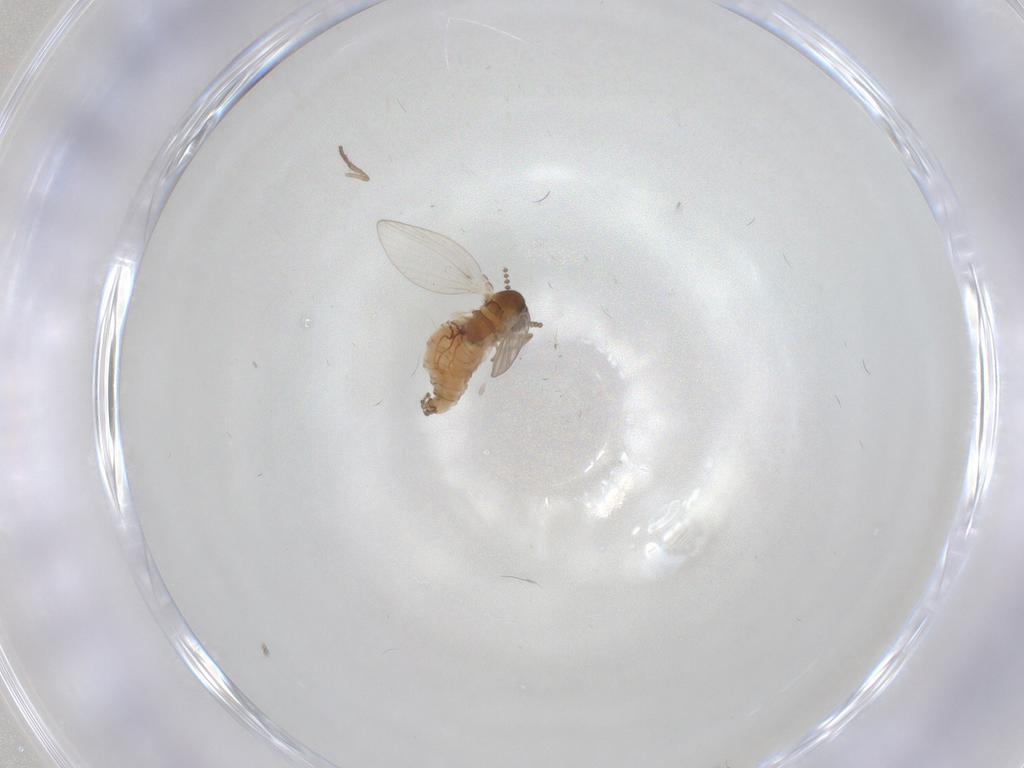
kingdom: Animalia
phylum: Arthropoda
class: Insecta
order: Diptera
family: Psychodidae
